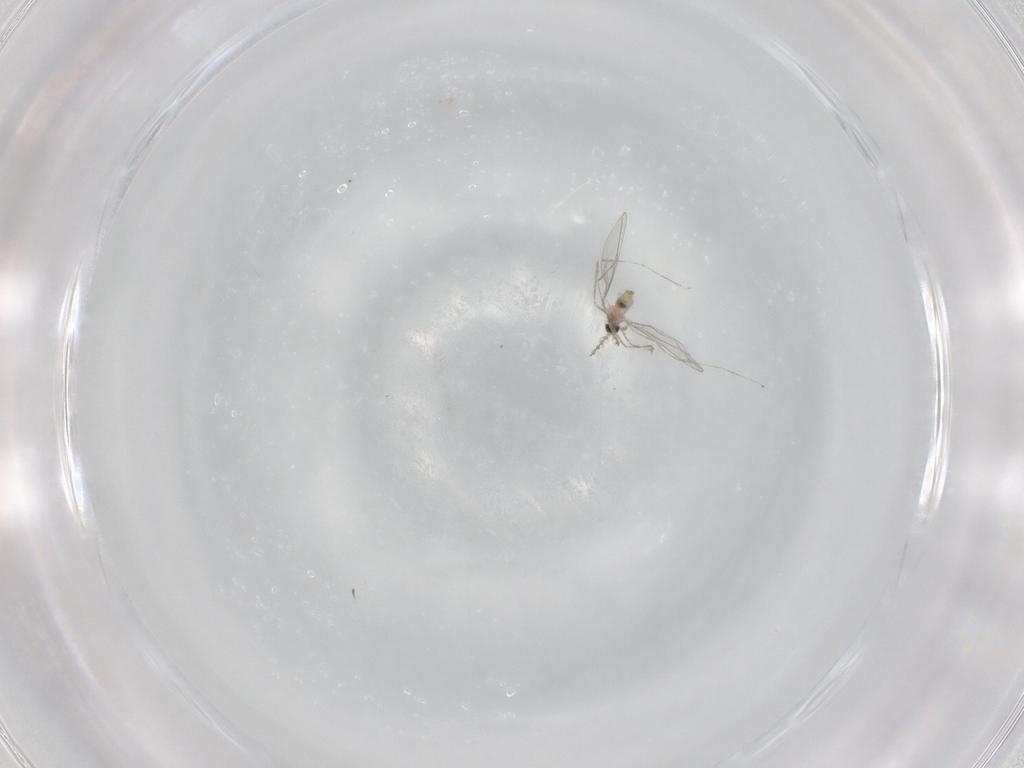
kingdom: Animalia
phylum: Arthropoda
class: Insecta
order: Diptera
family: Cecidomyiidae
